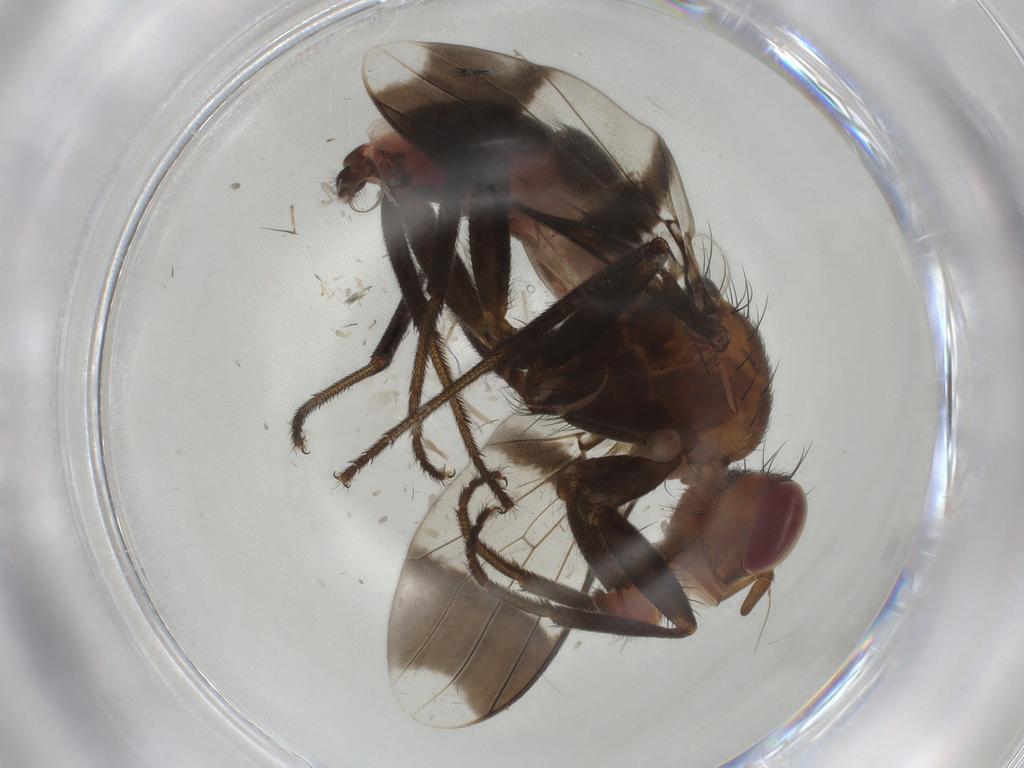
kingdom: Animalia
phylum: Arthropoda
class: Insecta
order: Diptera
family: Richardiidae
